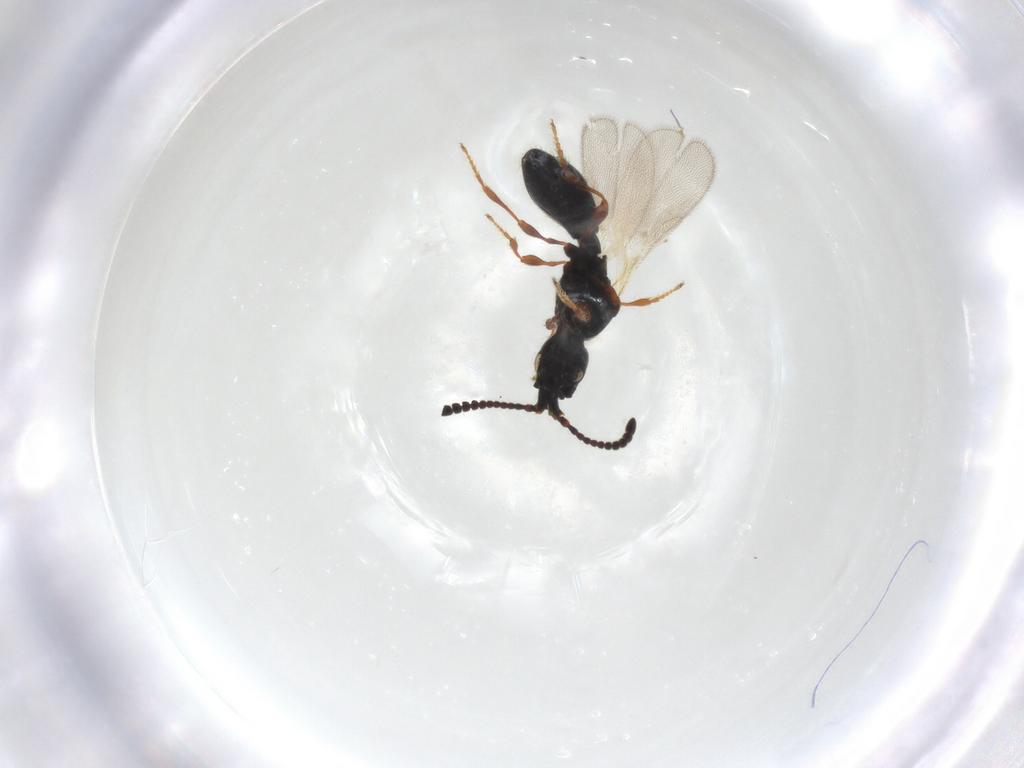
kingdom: Animalia
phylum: Arthropoda
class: Insecta
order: Hymenoptera
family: Diapriidae
